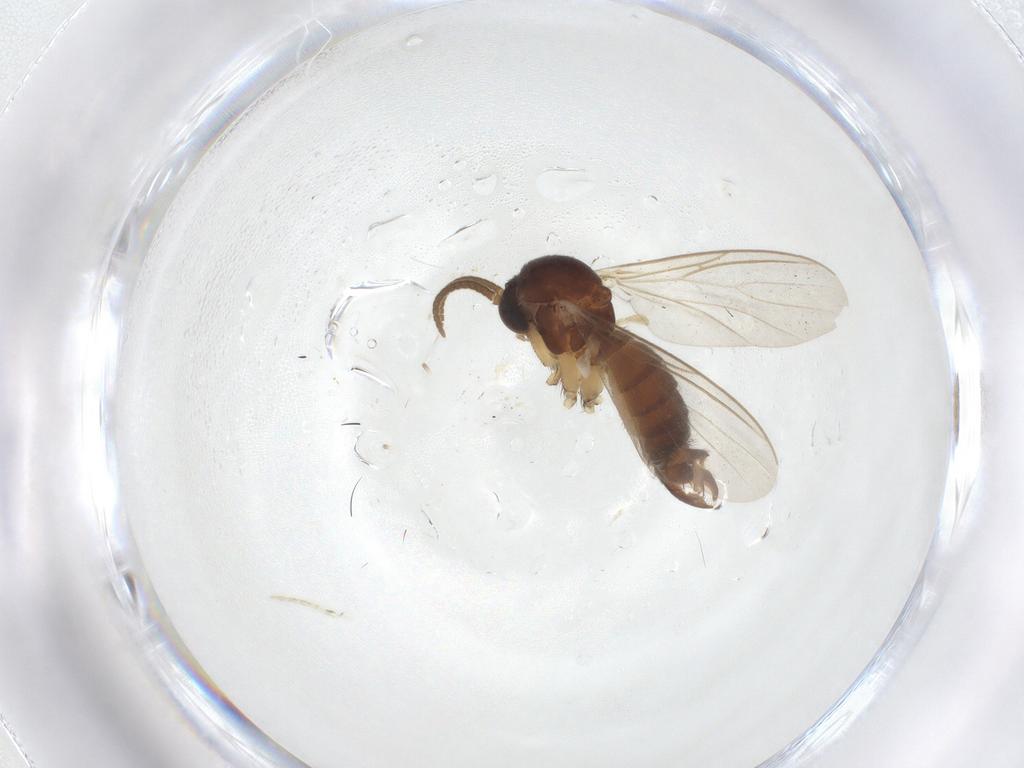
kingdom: Animalia
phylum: Arthropoda
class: Insecta
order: Diptera
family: Mycetophilidae
